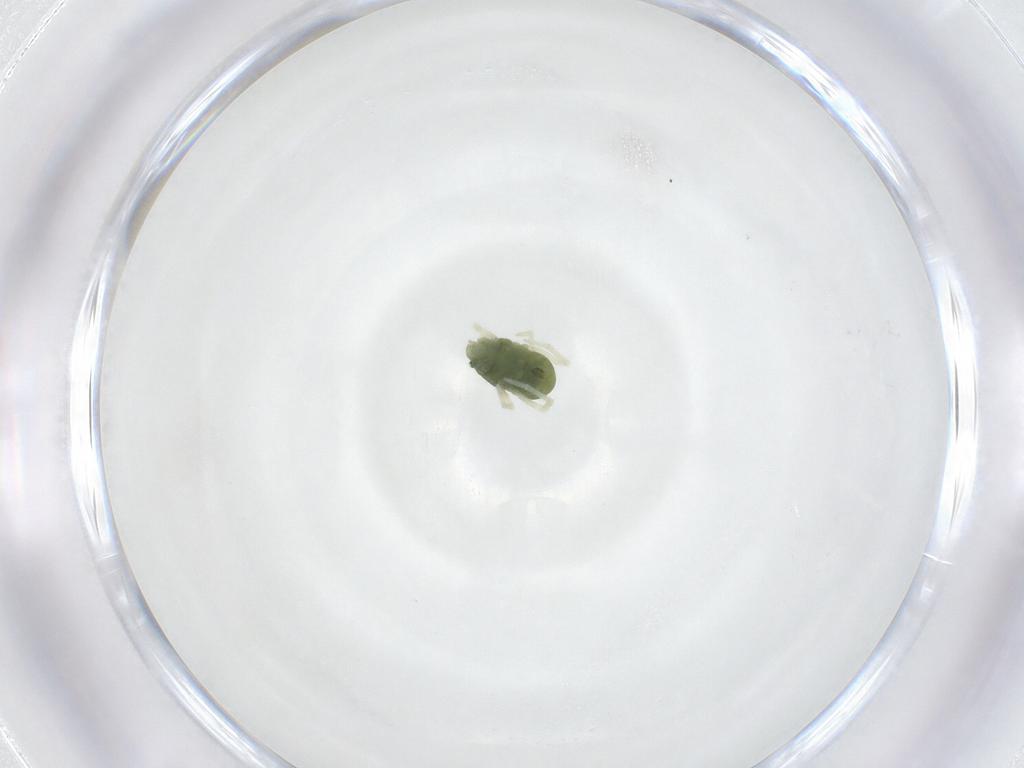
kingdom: Animalia
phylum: Arthropoda
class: Arachnida
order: Trombidiformes
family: Penthaleidae
